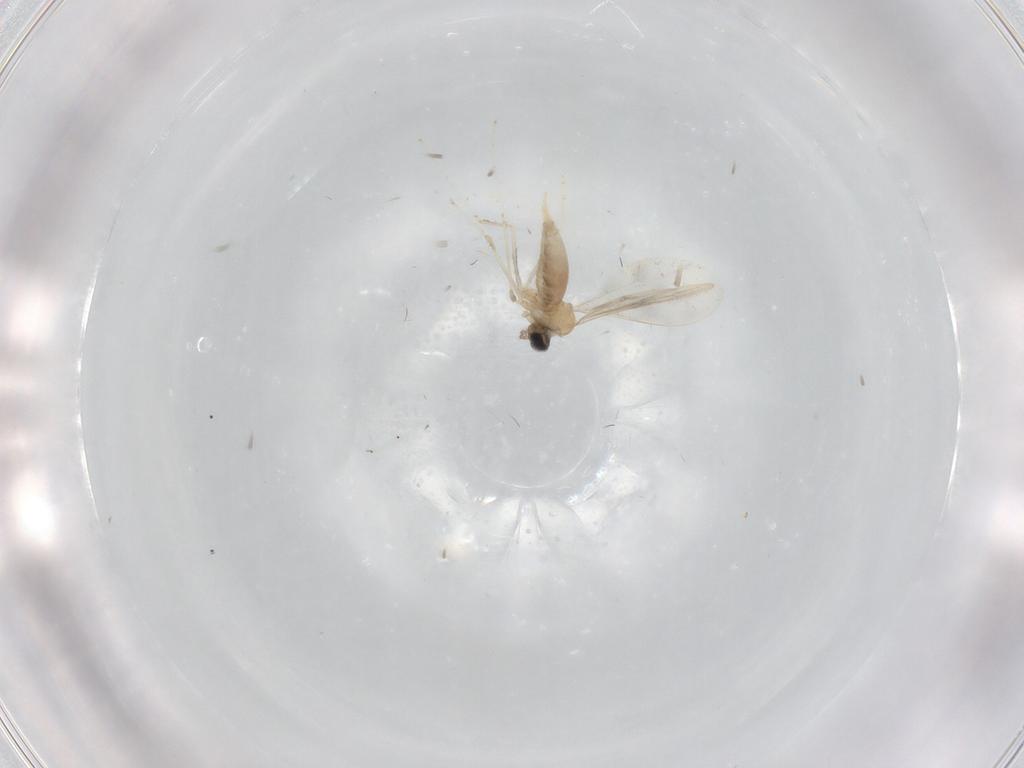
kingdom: Animalia
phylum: Arthropoda
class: Insecta
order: Diptera
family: Cecidomyiidae
